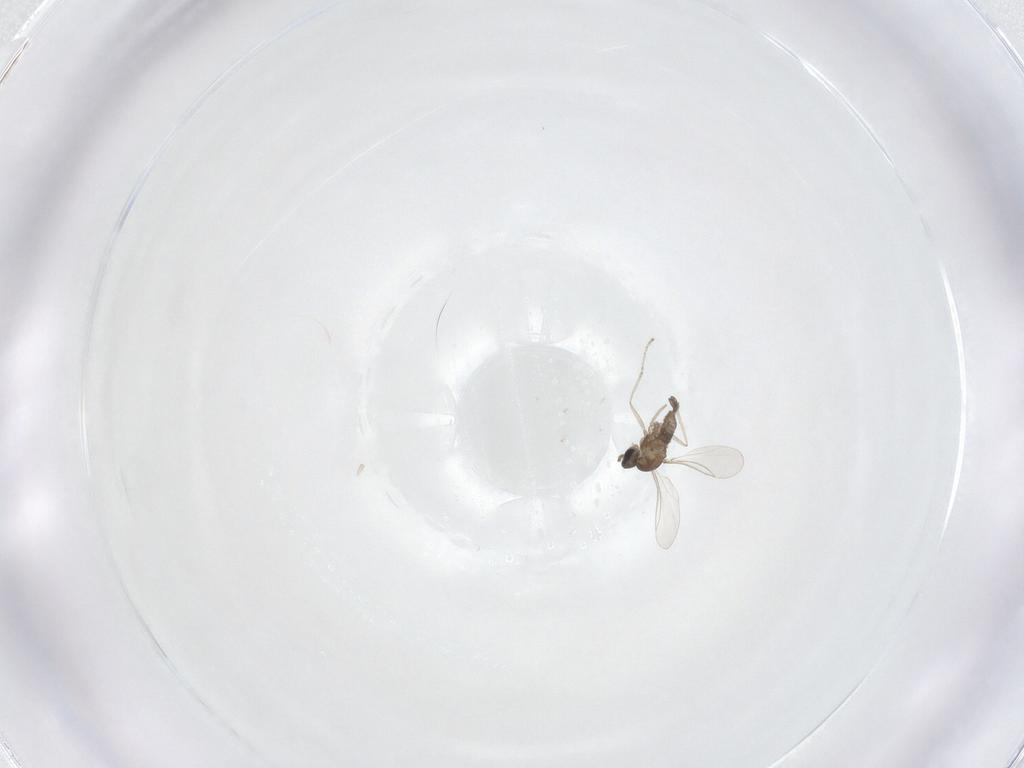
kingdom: Animalia
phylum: Arthropoda
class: Insecta
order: Diptera
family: Cecidomyiidae
